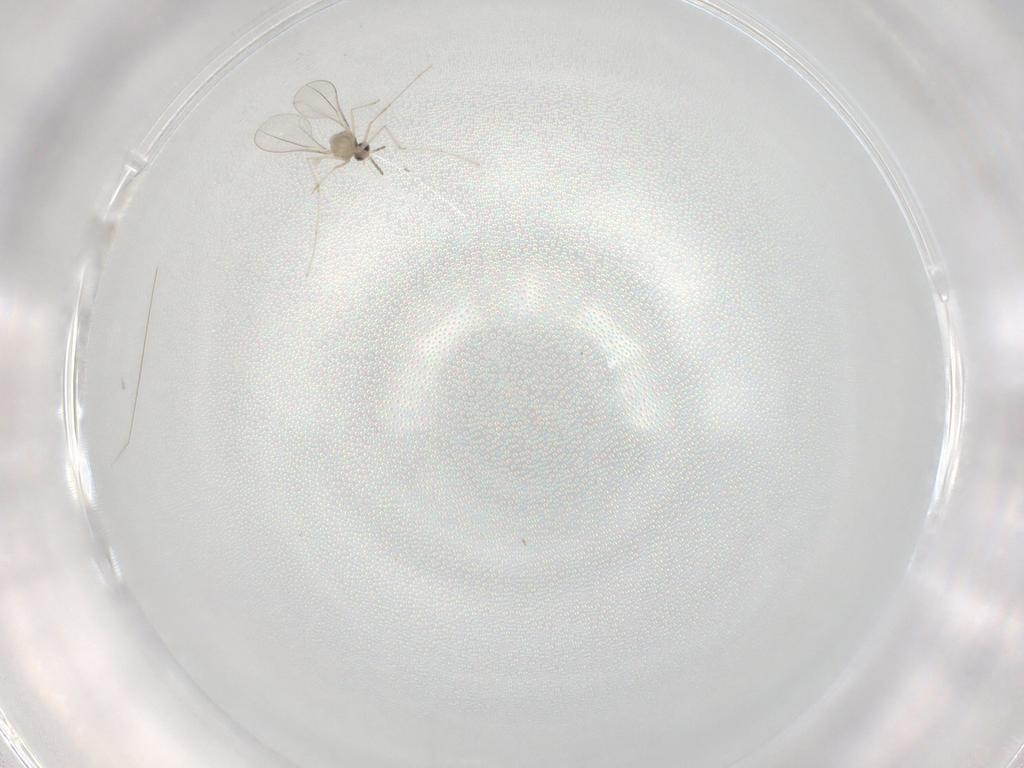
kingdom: Animalia
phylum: Arthropoda
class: Insecta
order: Diptera
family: Cecidomyiidae
